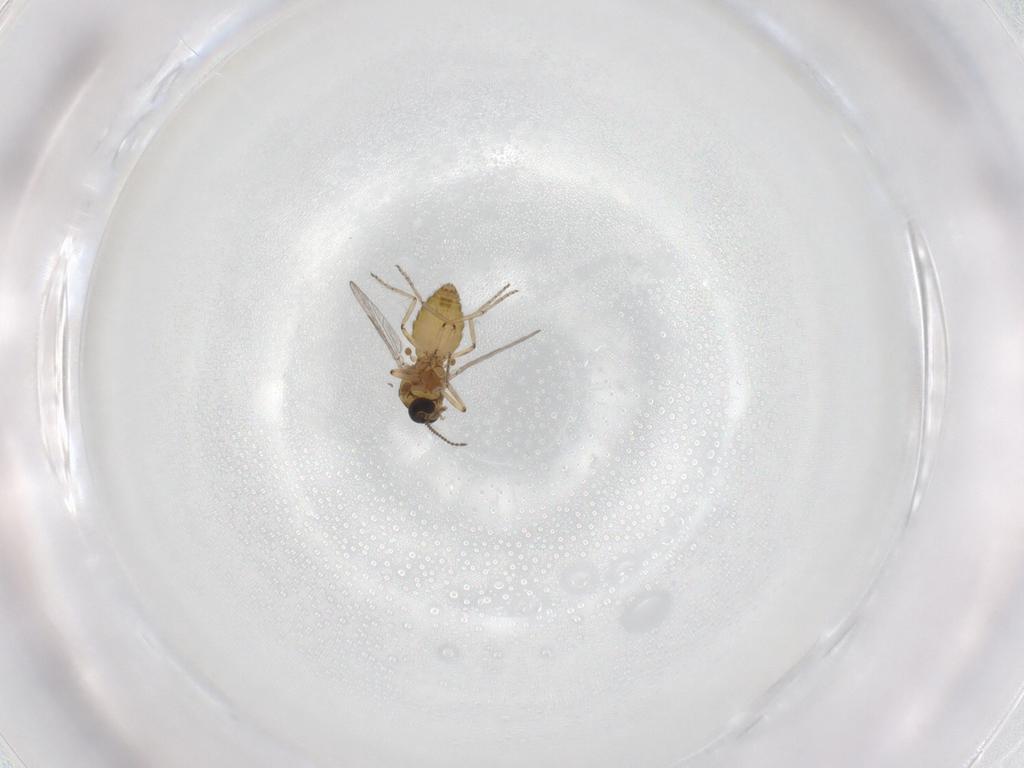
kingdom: Animalia
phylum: Arthropoda
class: Insecta
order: Diptera
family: Ceratopogonidae
